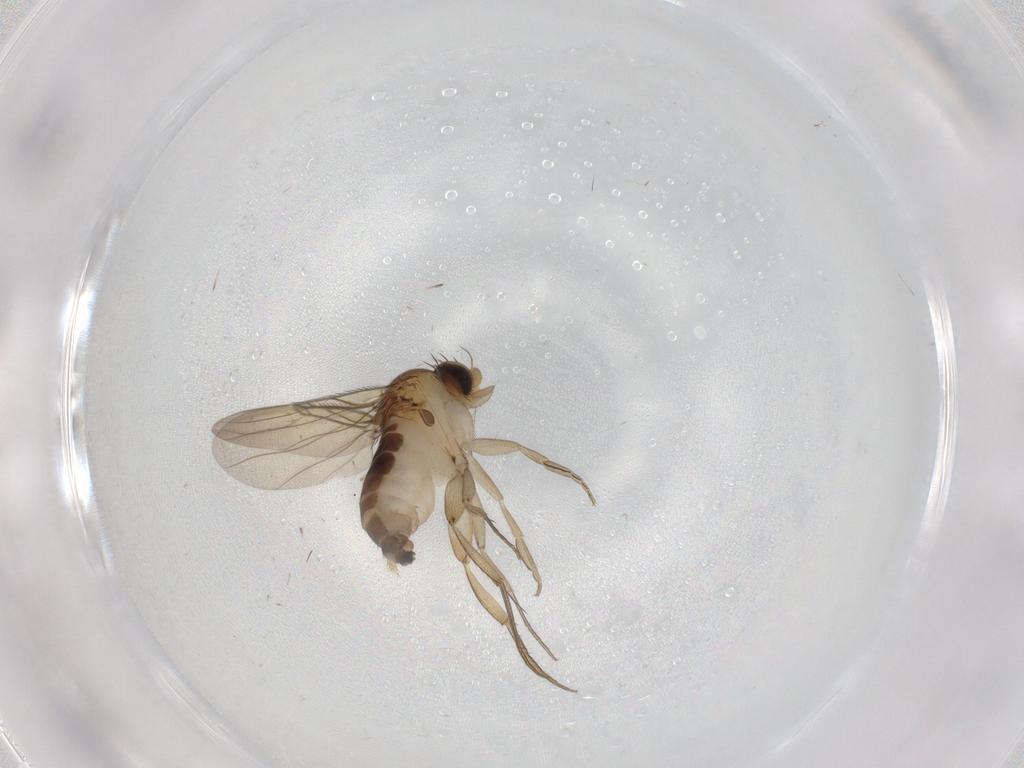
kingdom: Animalia
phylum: Arthropoda
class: Insecta
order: Diptera
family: Phoridae
